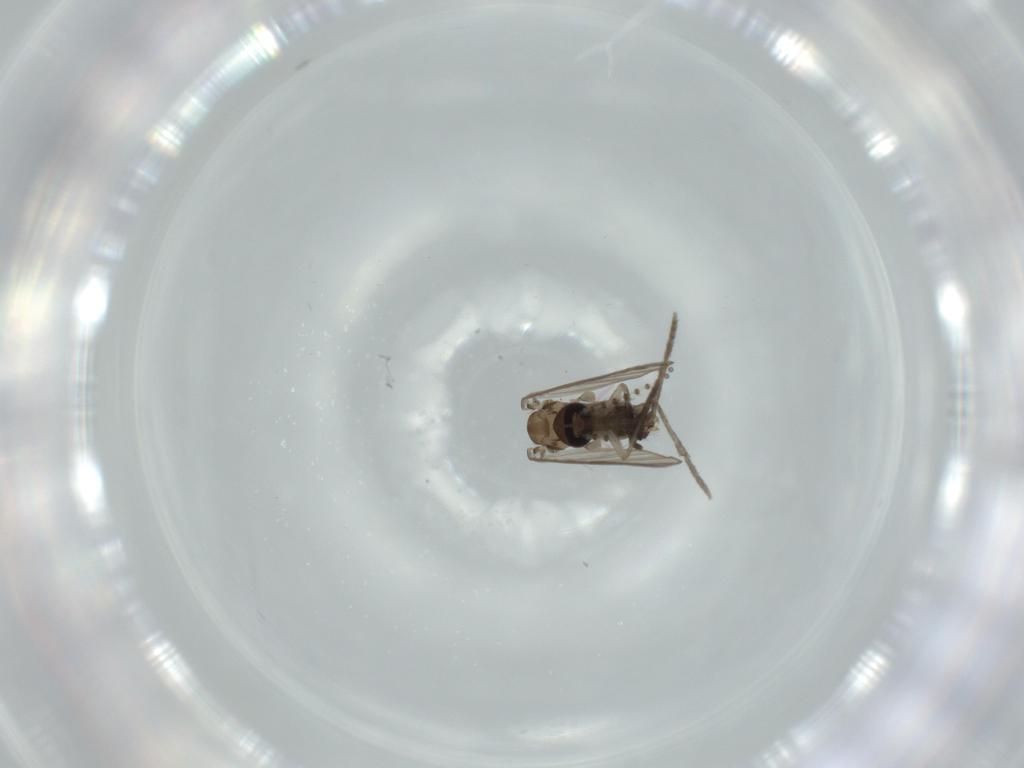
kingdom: Animalia
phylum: Arthropoda
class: Insecta
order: Diptera
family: Psychodidae
